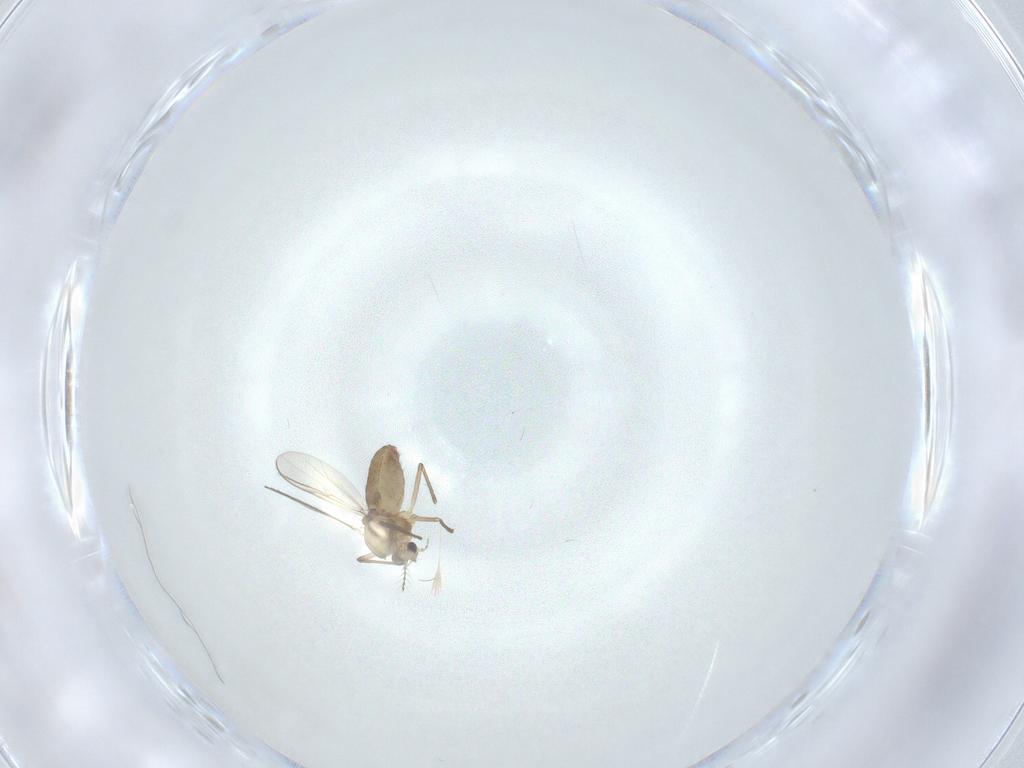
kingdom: Animalia
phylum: Arthropoda
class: Insecta
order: Diptera
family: Chironomidae
